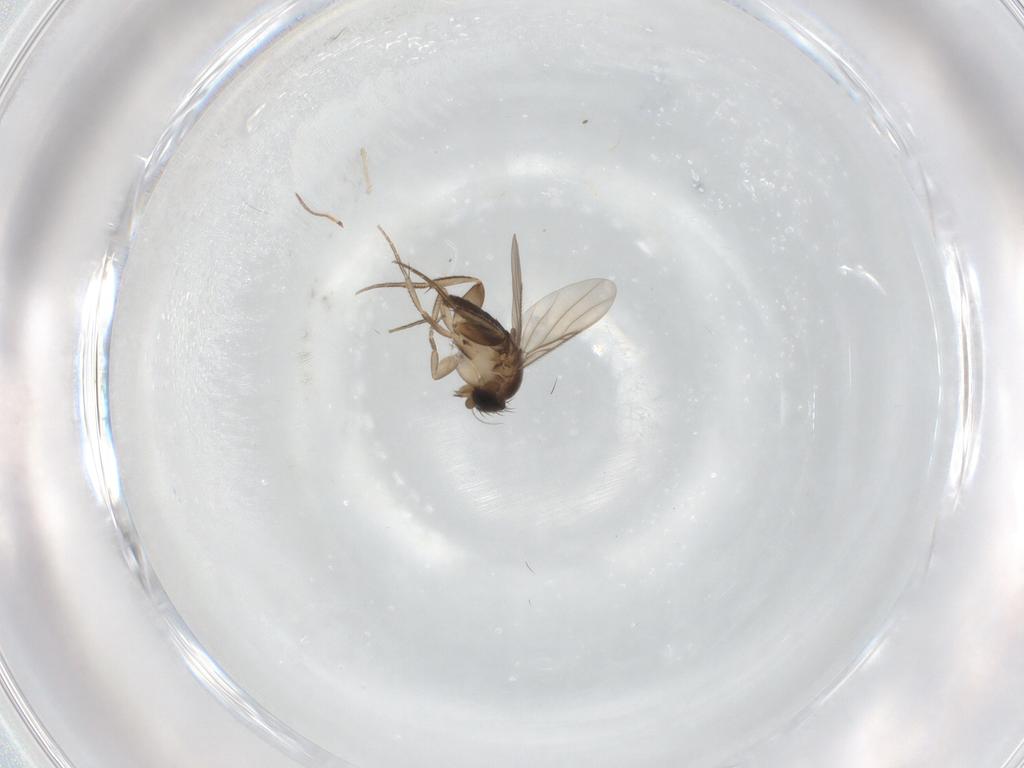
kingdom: Animalia
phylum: Arthropoda
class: Insecta
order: Diptera
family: Phoridae
